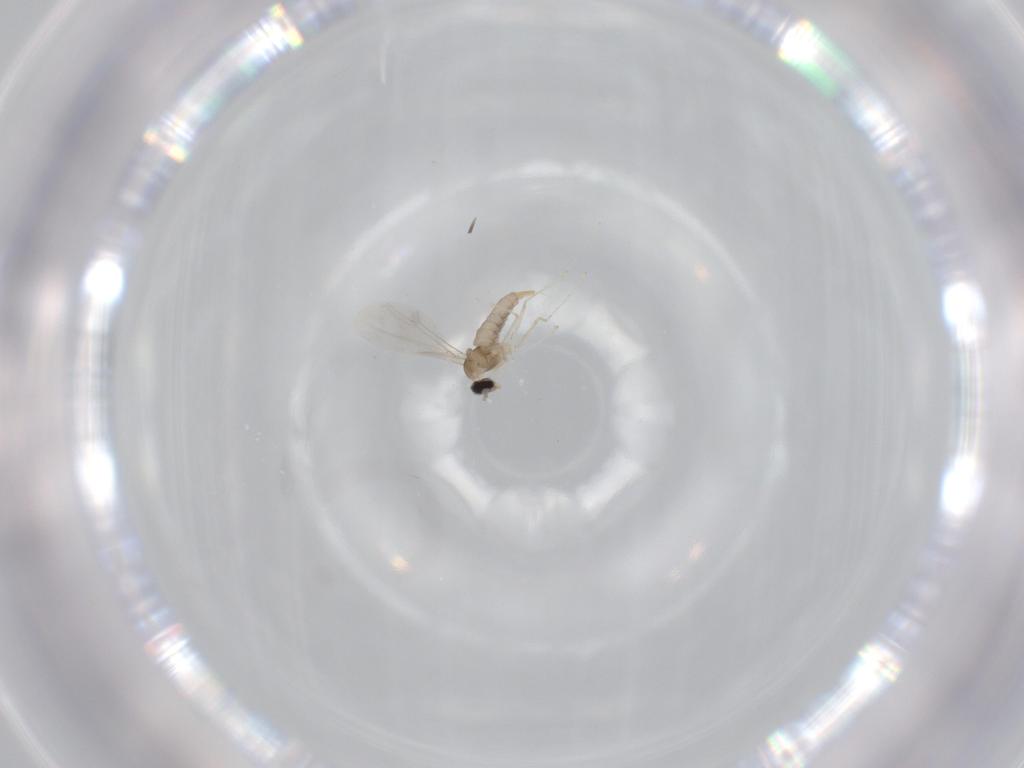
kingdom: Animalia
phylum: Arthropoda
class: Insecta
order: Diptera
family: Cecidomyiidae
